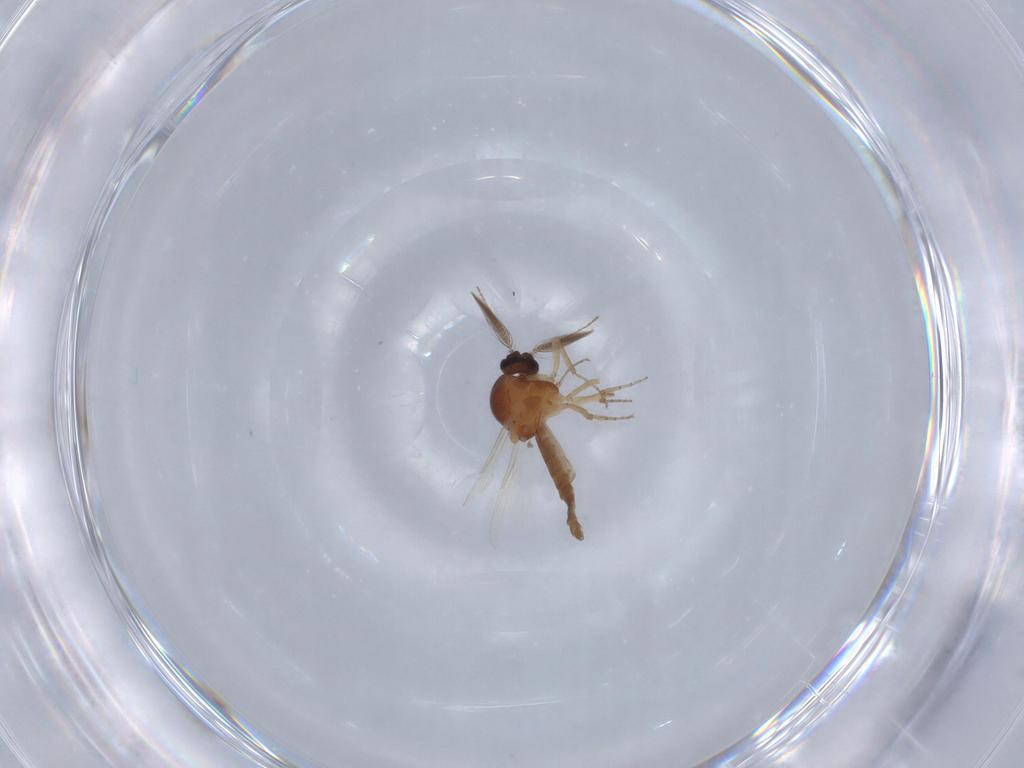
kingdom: Animalia
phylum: Arthropoda
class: Insecta
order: Diptera
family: Ceratopogonidae
